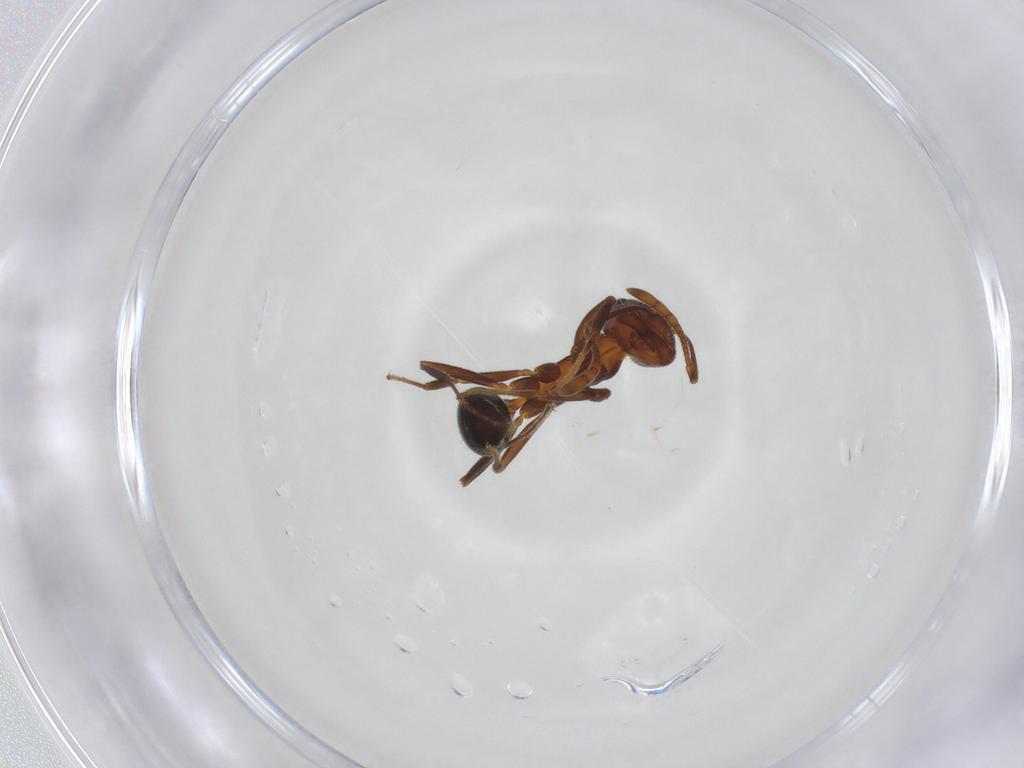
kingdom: Animalia
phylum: Arthropoda
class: Insecta
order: Hymenoptera
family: Formicidae
